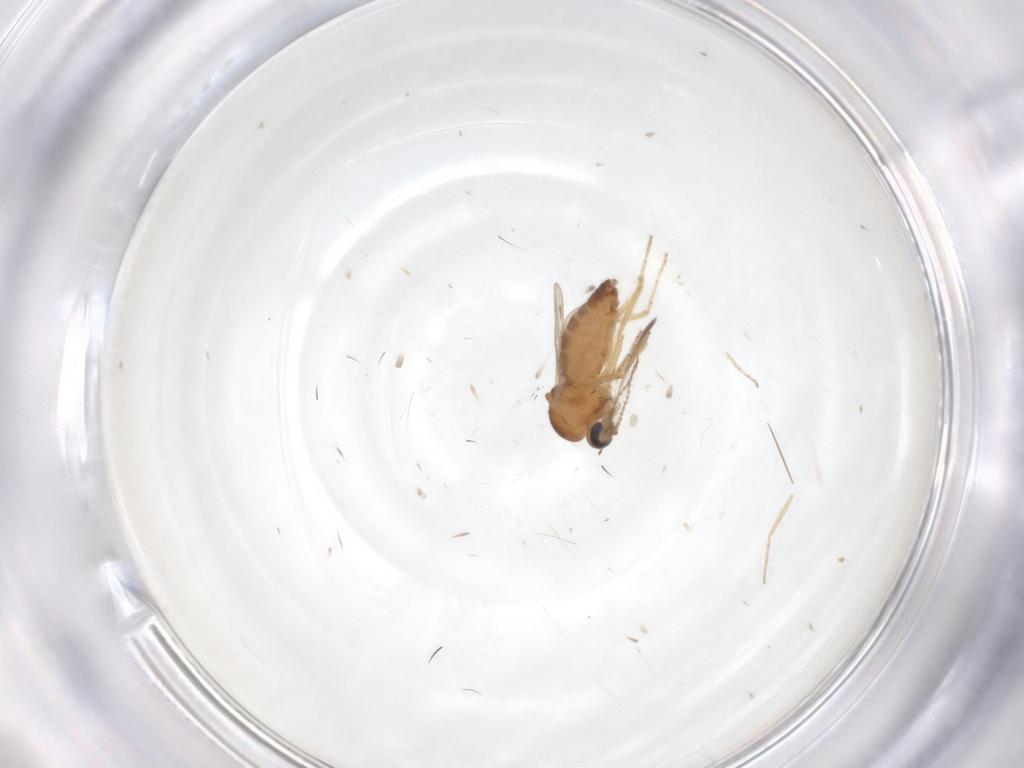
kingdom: Animalia
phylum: Arthropoda
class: Insecta
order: Diptera
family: Ceratopogonidae
